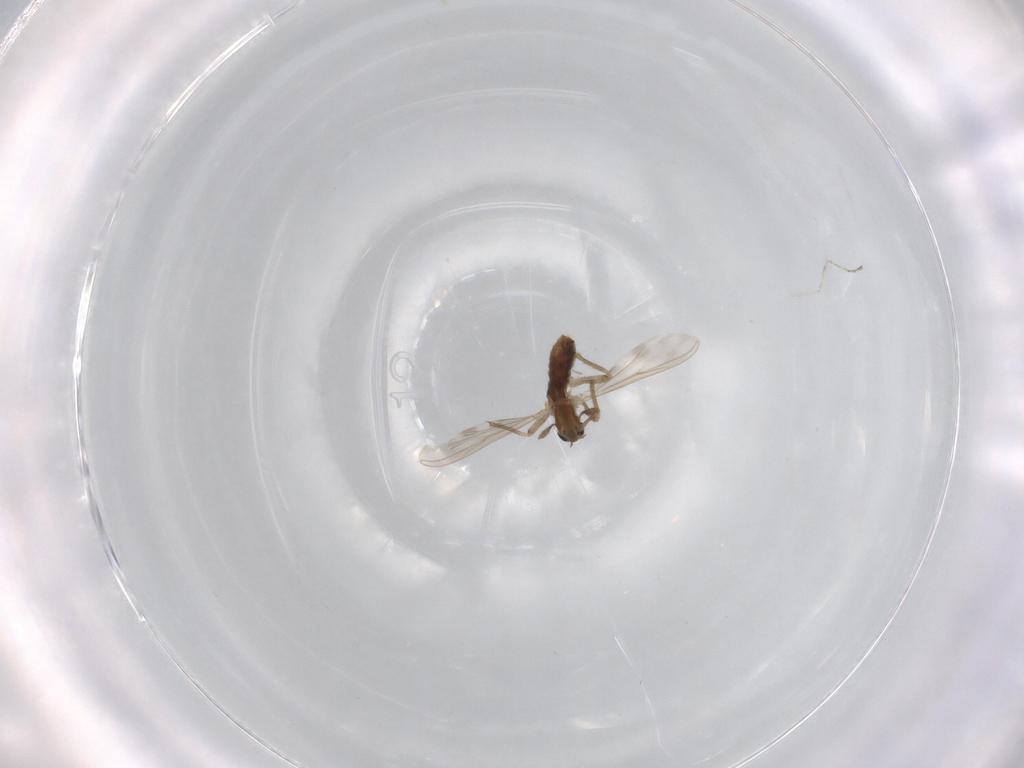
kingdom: Animalia
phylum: Arthropoda
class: Insecta
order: Diptera
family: Chironomidae
